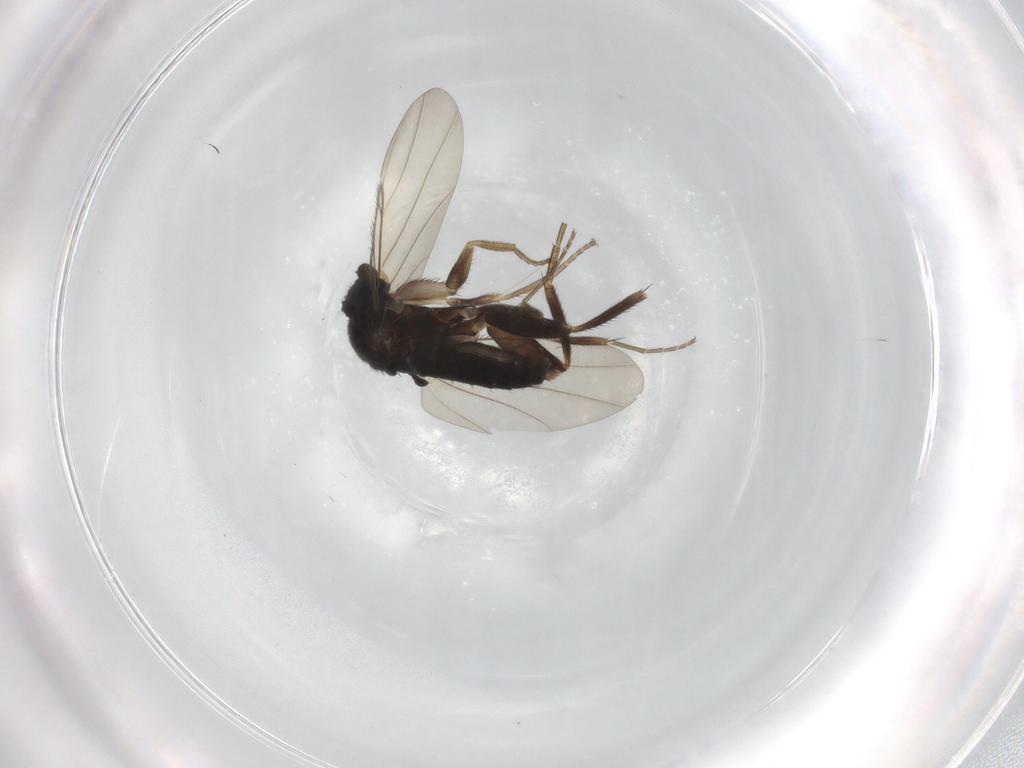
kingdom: Animalia
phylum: Arthropoda
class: Insecta
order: Diptera
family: Phoridae
